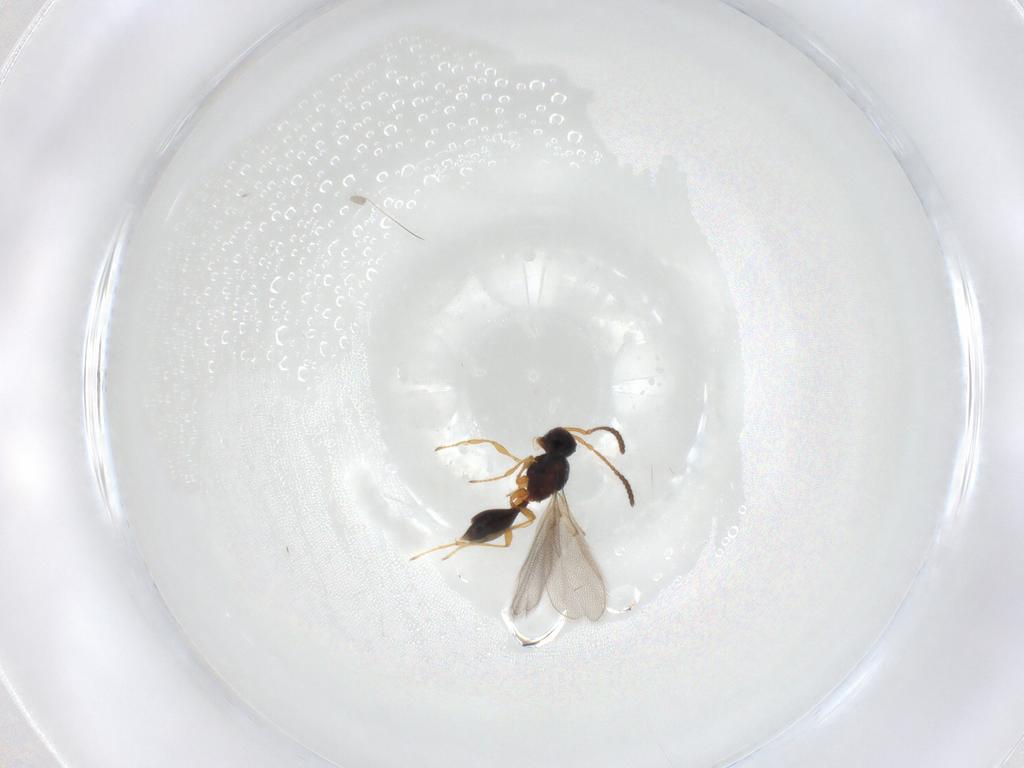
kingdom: Animalia
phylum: Arthropoda
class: Insecta
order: Hymenoptera
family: Diapriidae
